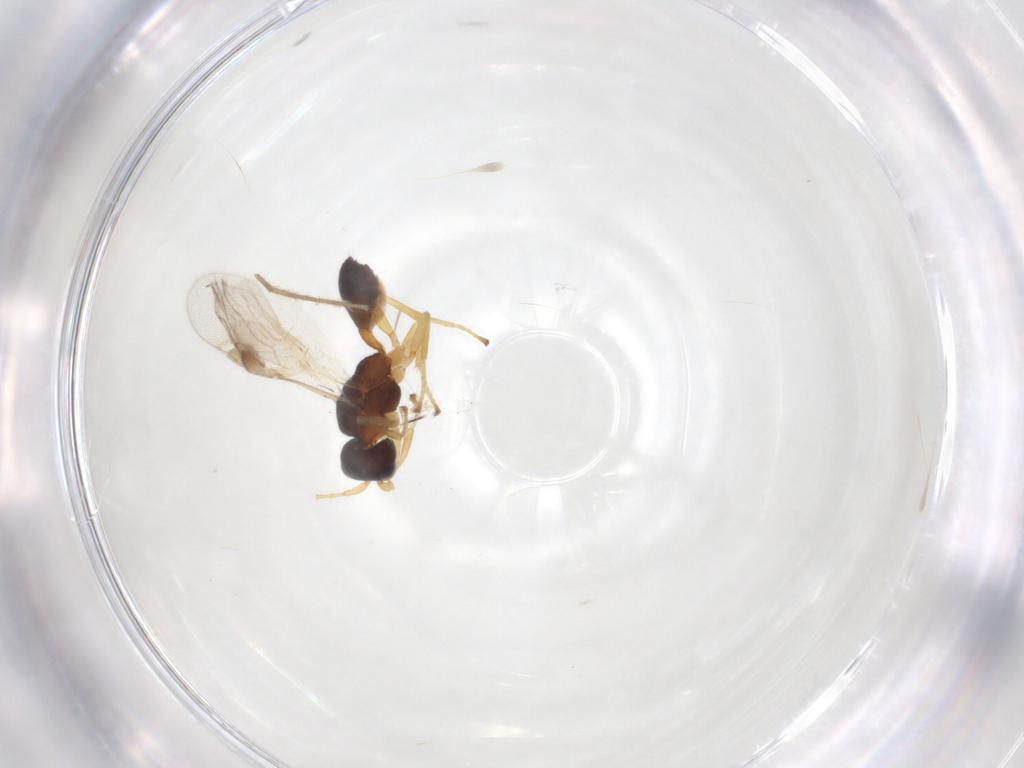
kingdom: Animalia
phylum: Arthropoda
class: Insecta
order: Hymenoptera
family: Braconidae
